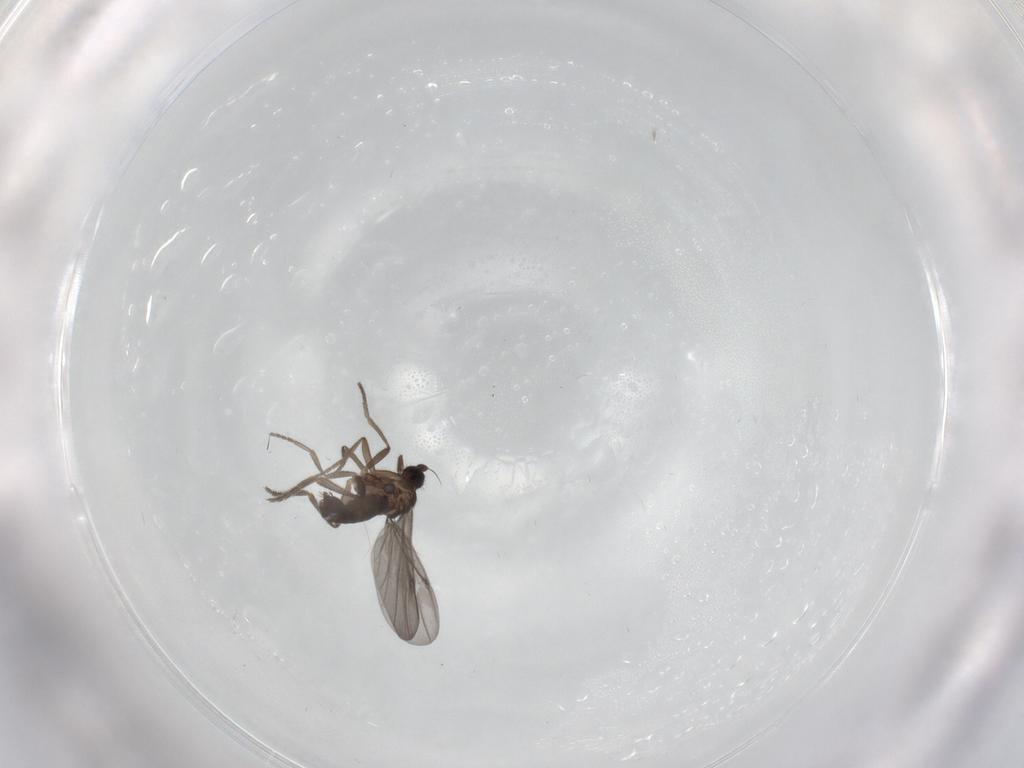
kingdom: Animalia
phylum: Arthropoda
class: Insecta
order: Diptera
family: Phoridae
